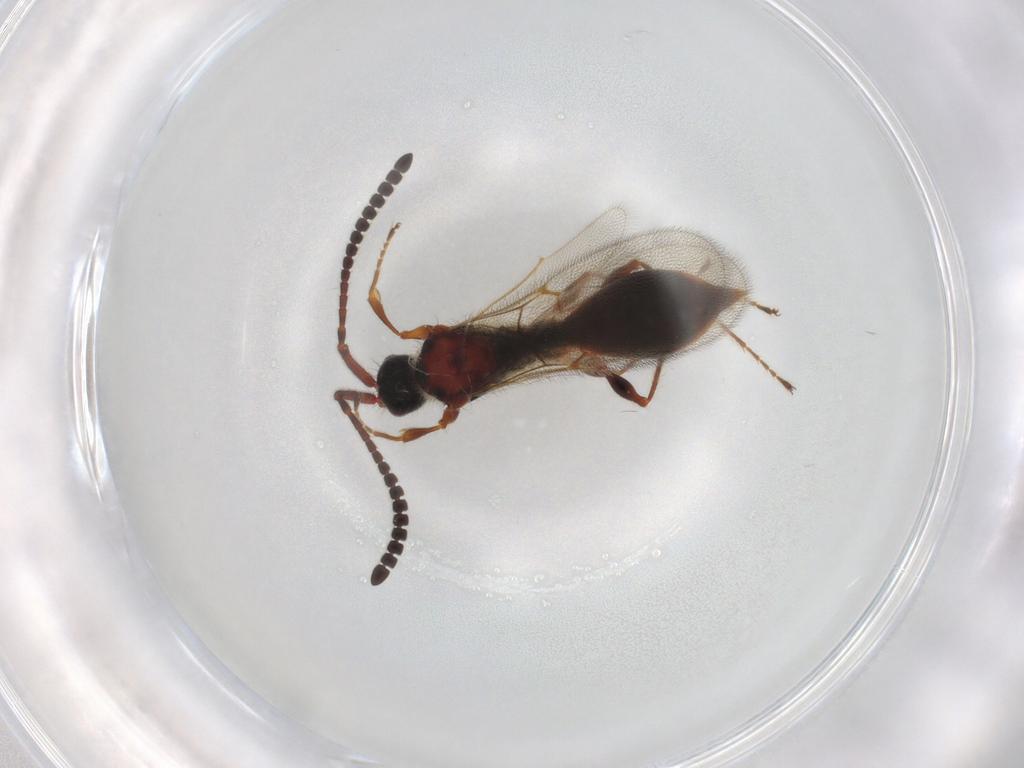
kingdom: Animalia
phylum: Arthropoda
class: Insecta
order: Hymenoptera
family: Diapriidae
